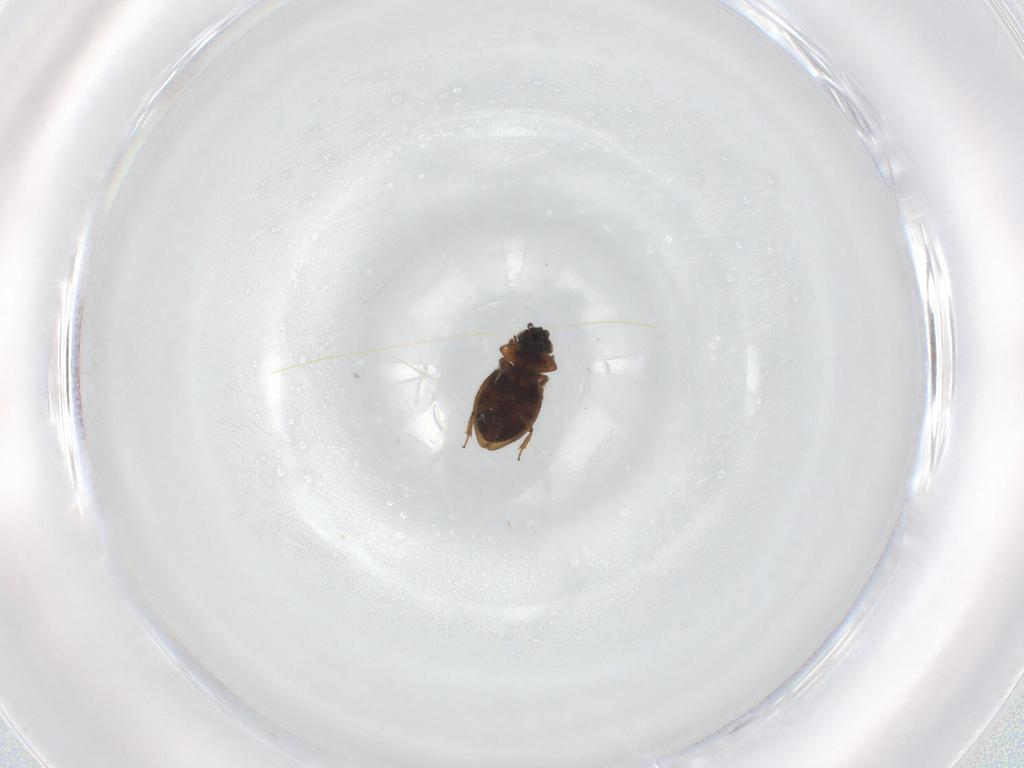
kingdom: Animalia
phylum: Arthropoda
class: Insecta
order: Coleoptera
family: Hydraenidae
